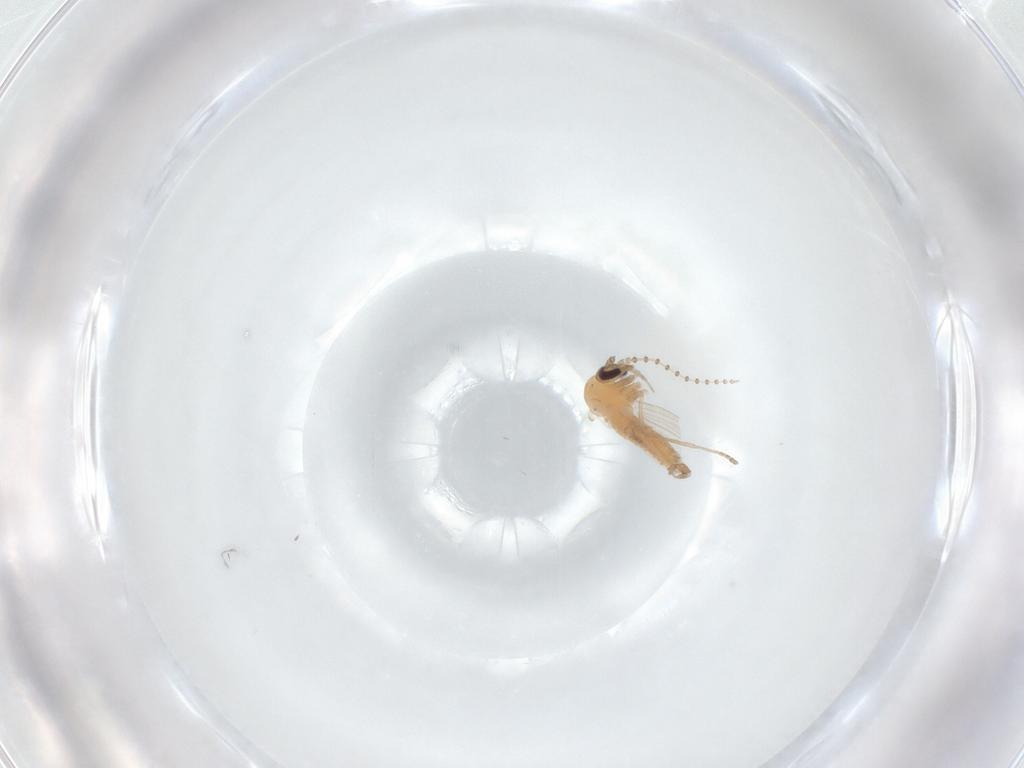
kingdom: Animalia
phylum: Arthropoda
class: Insecta
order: Diptera
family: Psychodidae
